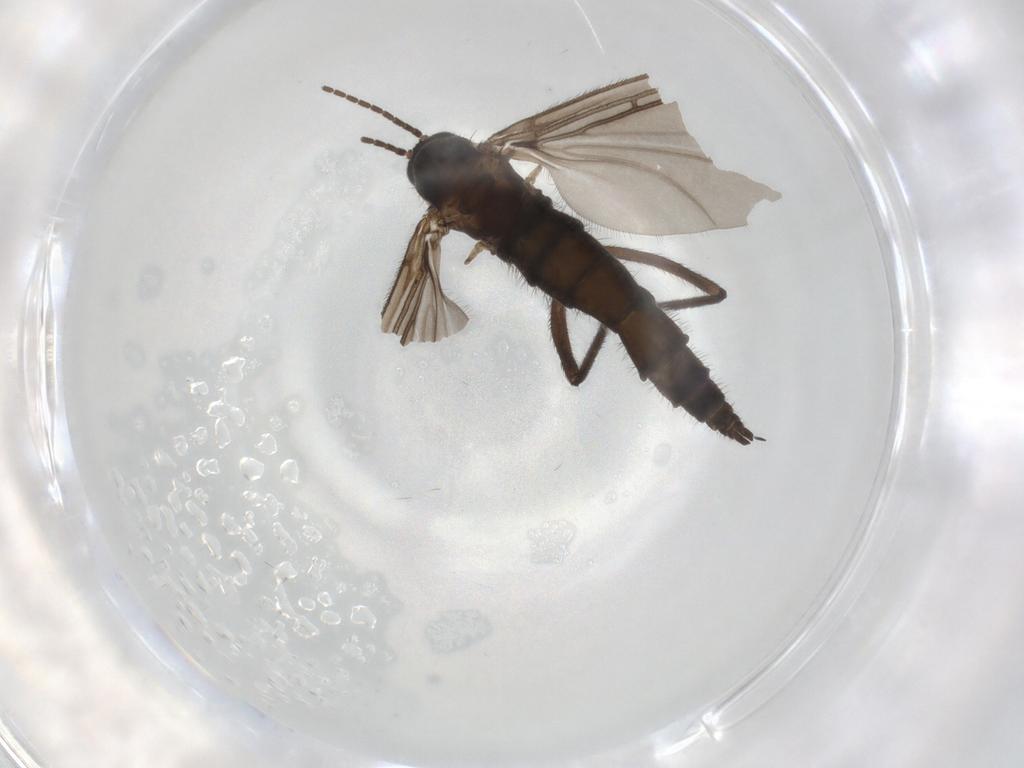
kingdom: Animalia
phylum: Arthropoda
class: Insecta
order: Diptera
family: Sciaridae
